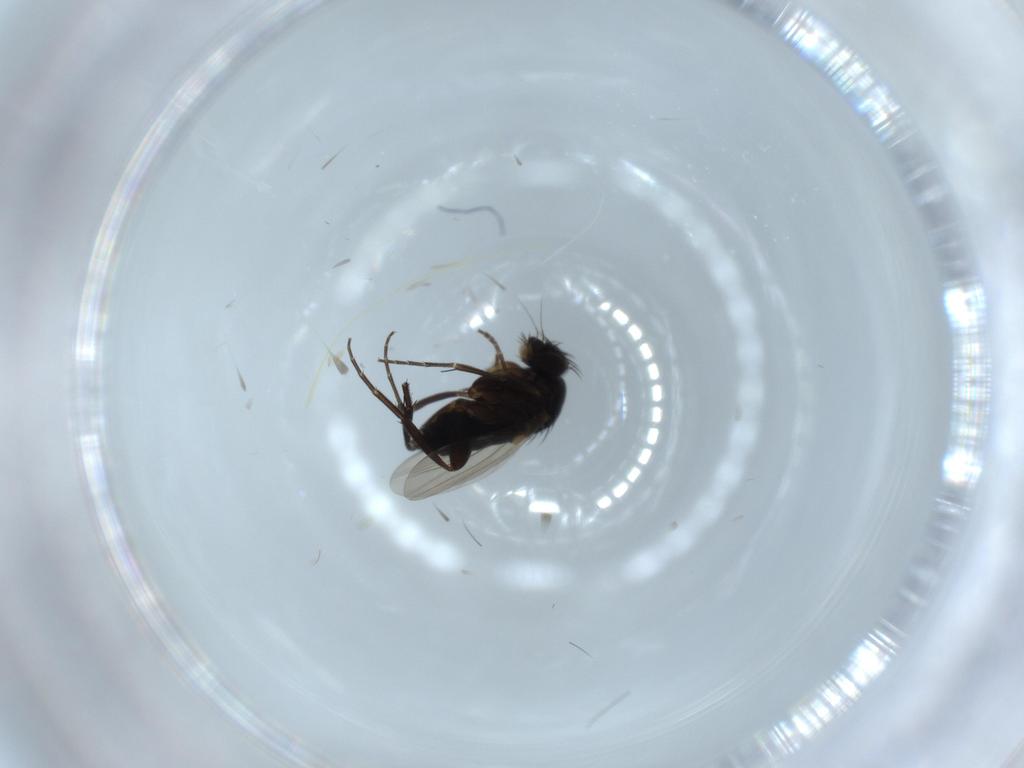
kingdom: Animalia
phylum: Arthropoda
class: Insecta
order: Diptera
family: Phoridae
